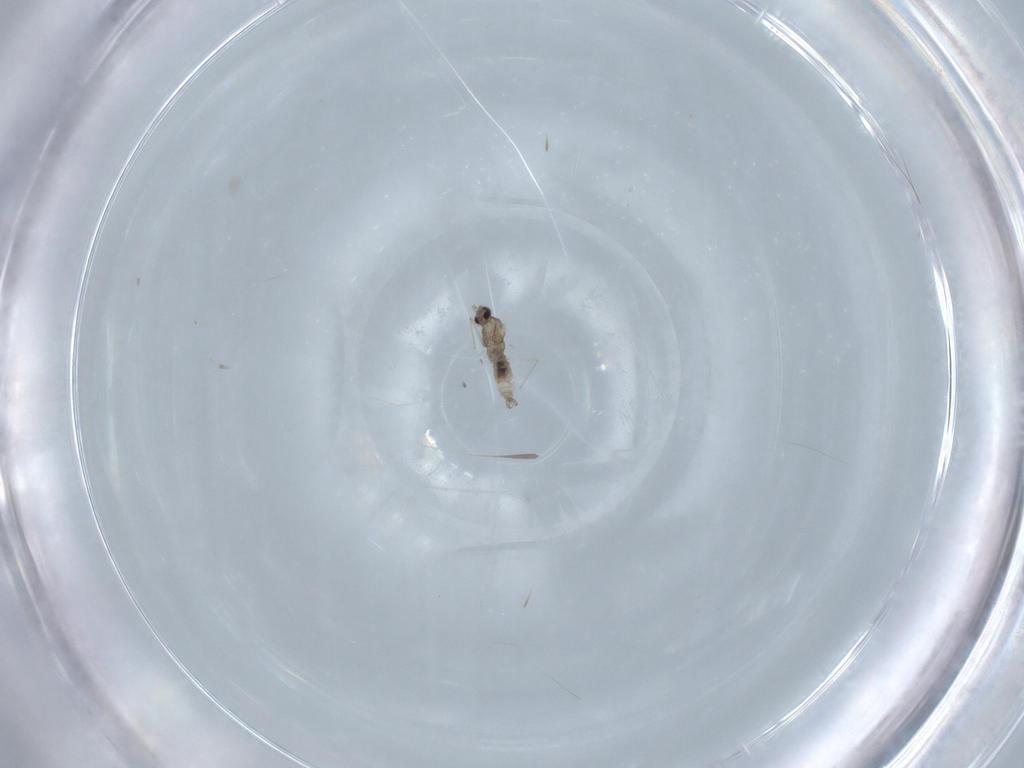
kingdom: Animalia
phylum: Arthropoda
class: Insecta
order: Diptera
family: Cecidomyiidae
